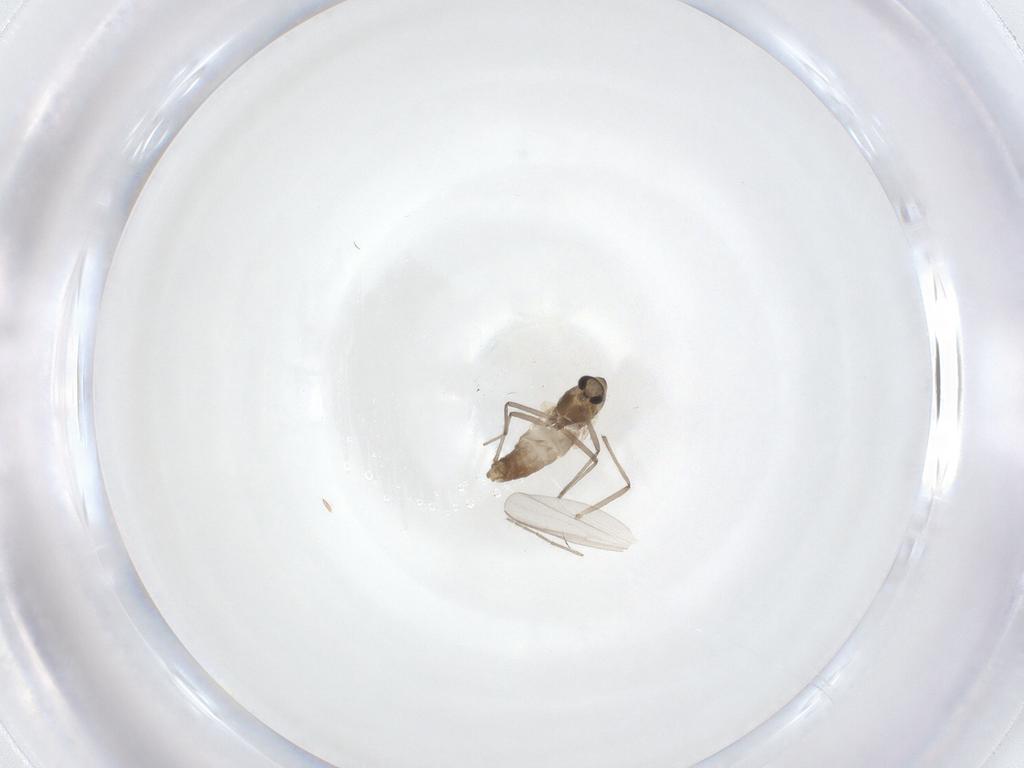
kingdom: Animalia
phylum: Arthropoda
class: Insecta
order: Diptera
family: Chironomidae
